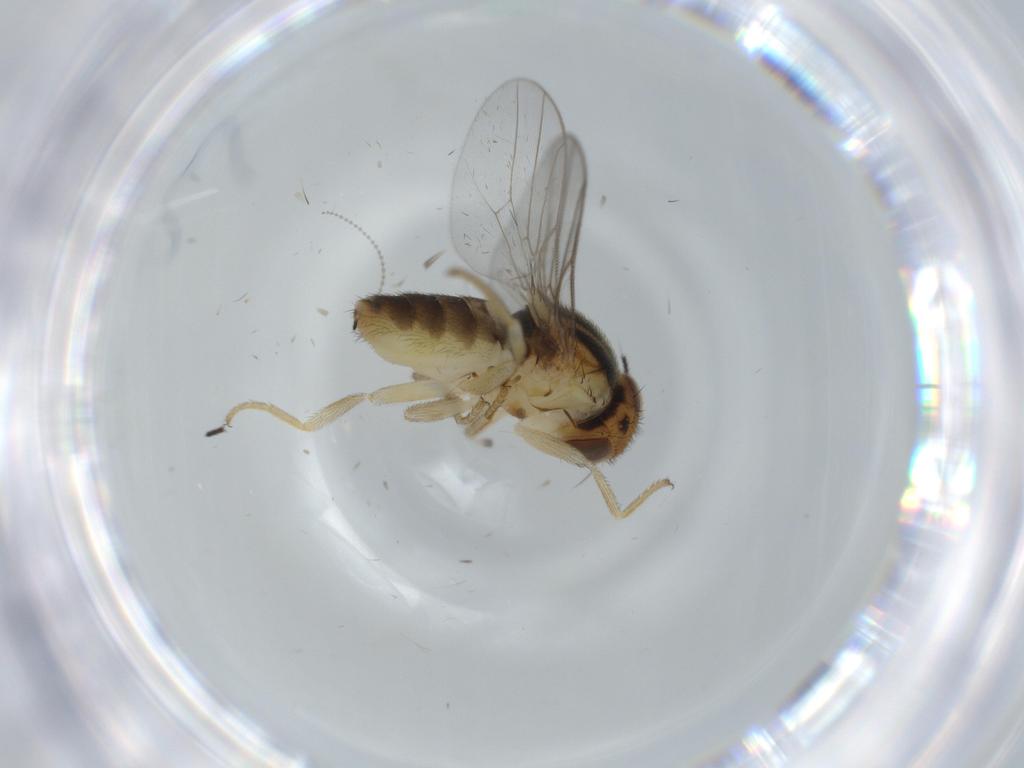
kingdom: Animalia
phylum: Arthropoda
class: Insecta
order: Diptera
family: Chloropidae
